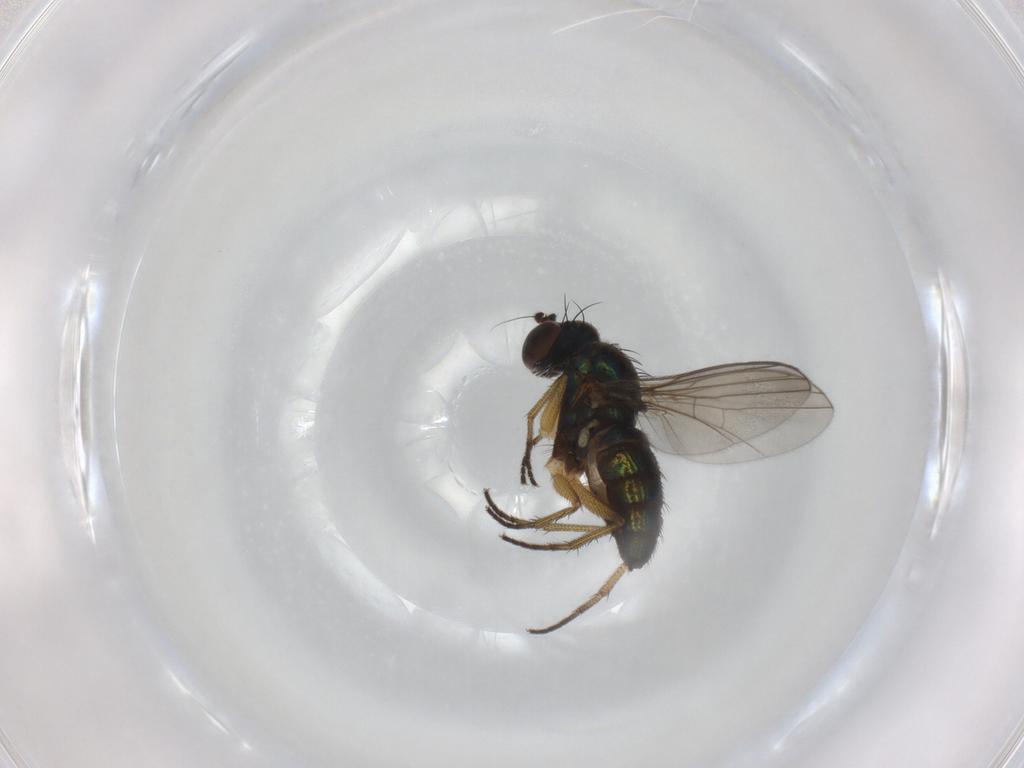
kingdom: Animalia
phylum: Arthropoda
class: Insecta
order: Diptera
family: Dolichopodidae
